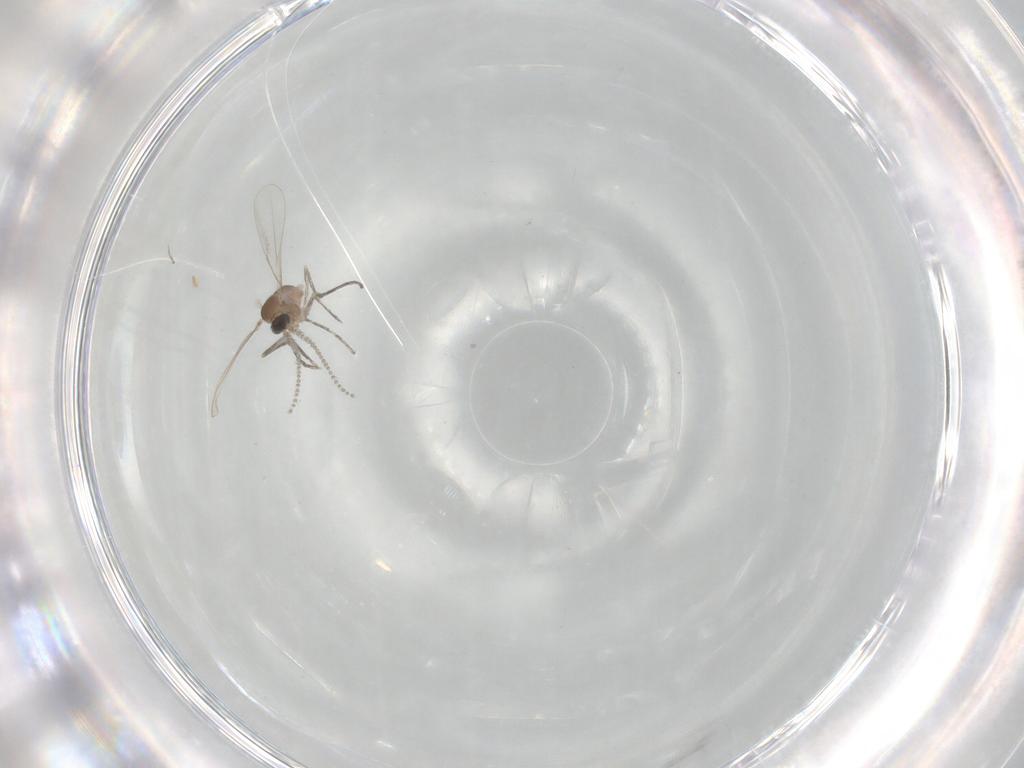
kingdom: Animalia
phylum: Arthropoda
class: Insecta
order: Diptera
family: Cecidomyiidae
